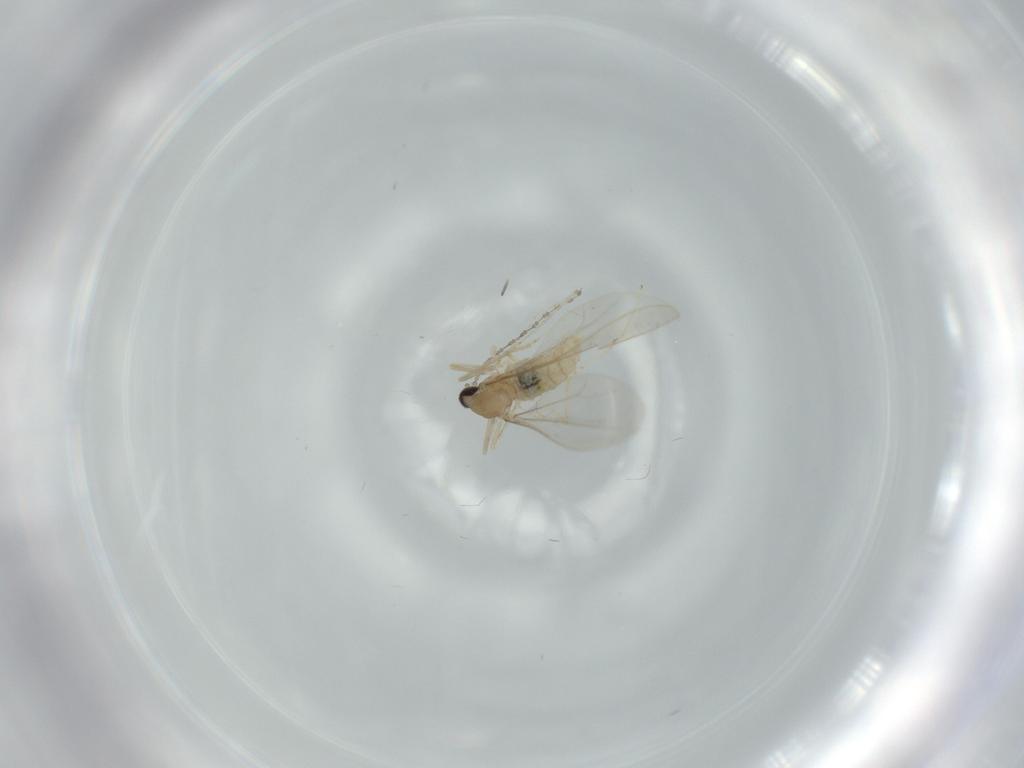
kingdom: Animalia
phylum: Arthropoda
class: Insecta
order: Diptera
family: Cecidomyiidae
